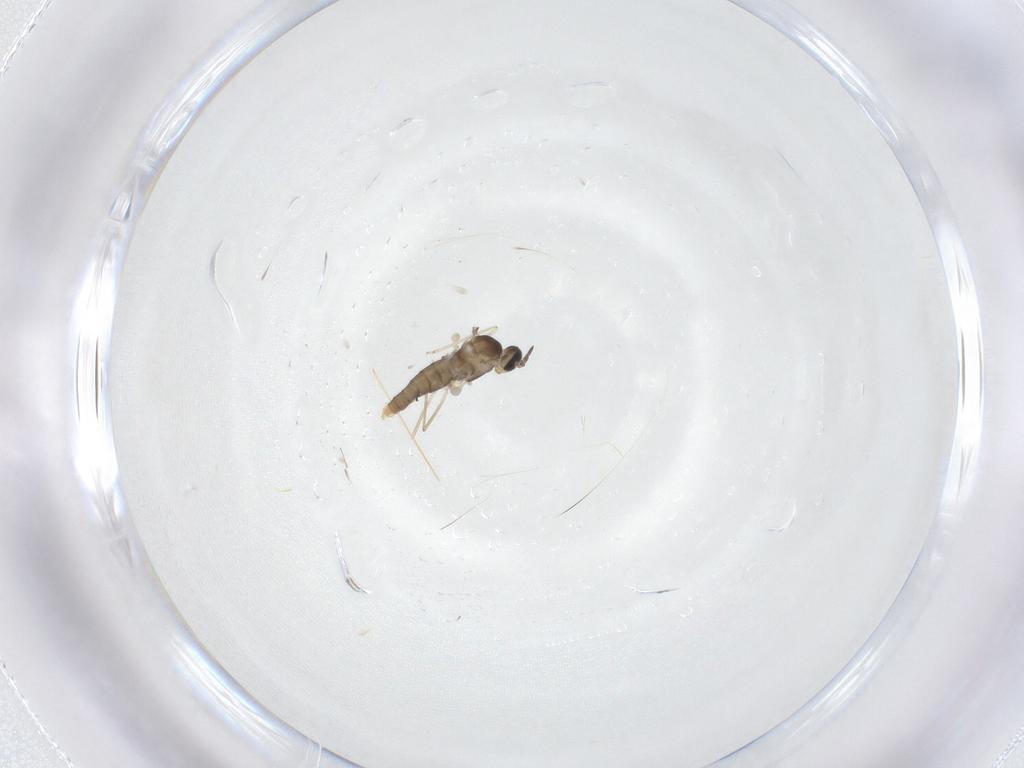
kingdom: Animalia
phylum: Arthropoda
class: Insecta
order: Diptera
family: Cecidomyiidae
